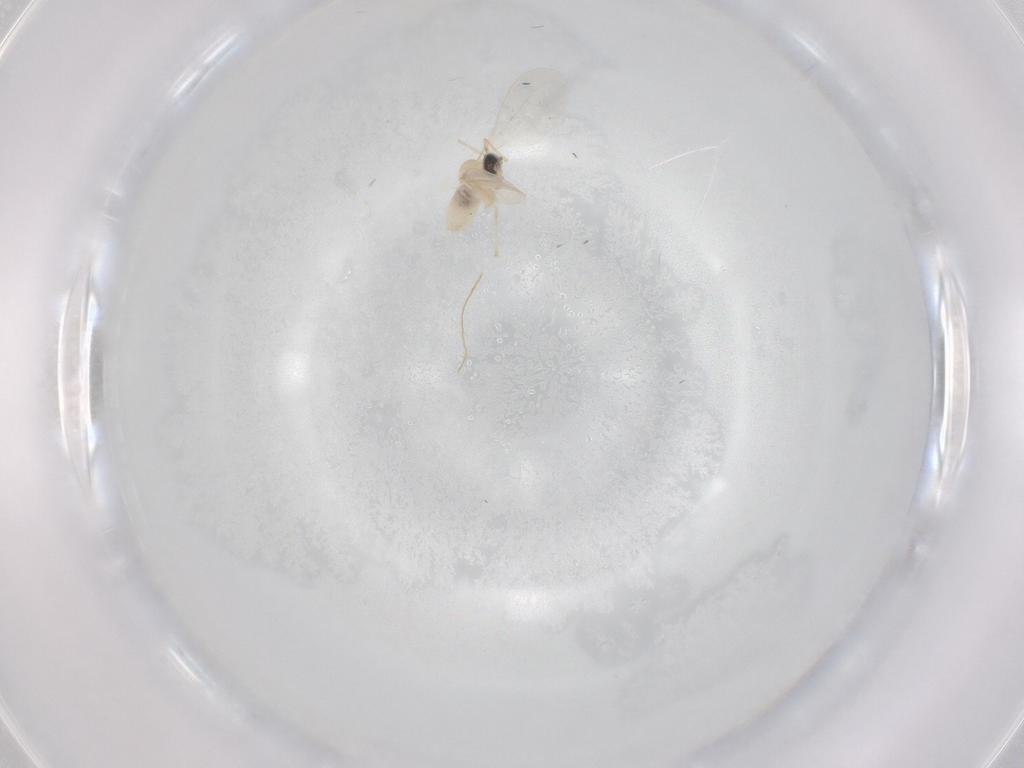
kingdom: Animalia
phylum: Arthropoda
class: Insecta
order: Diptera
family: Cecidomyiidae
